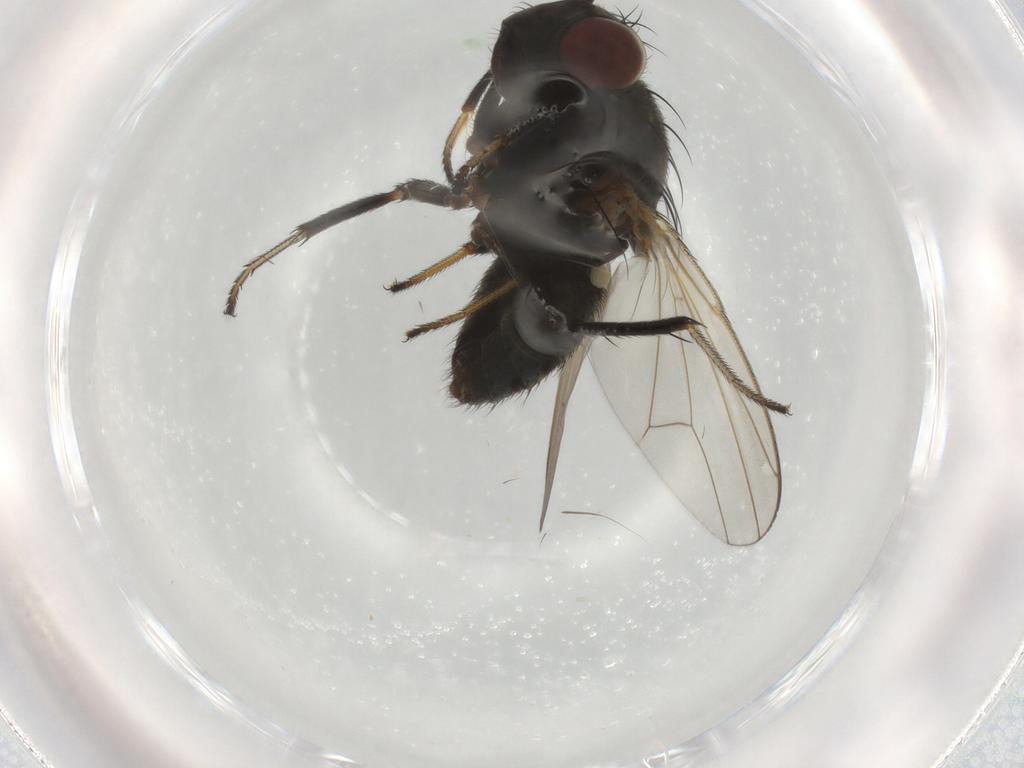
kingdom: Animalia
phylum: Arthropoda
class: Insecta
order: Diptera
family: Ephydridae
